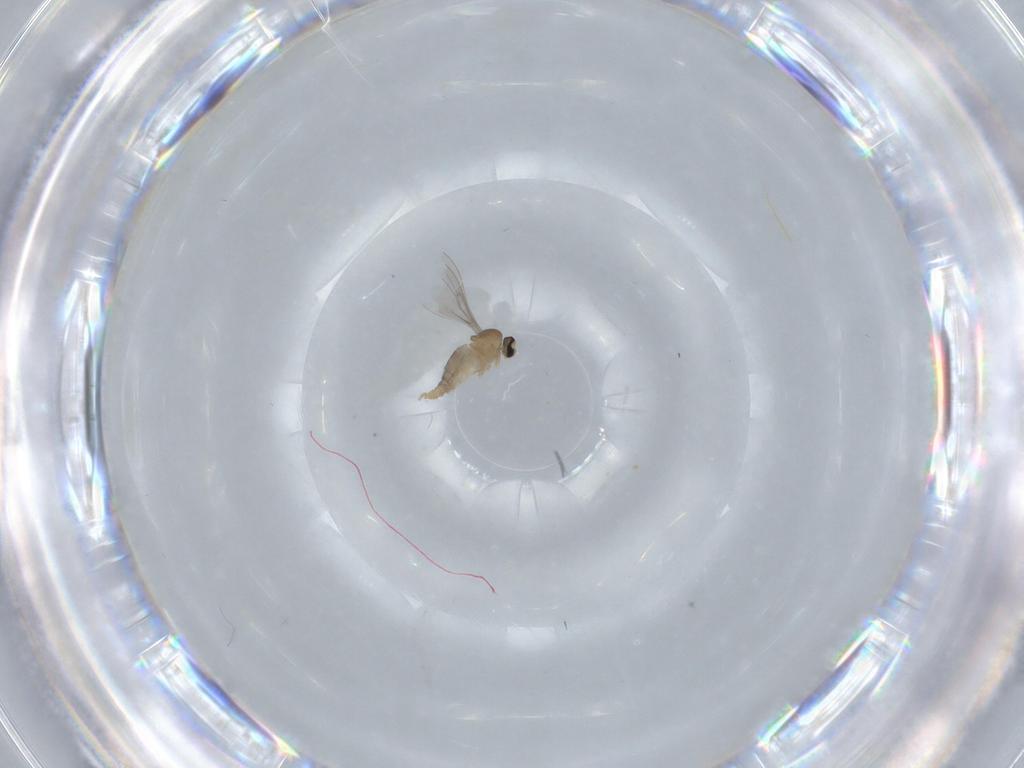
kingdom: Animalia
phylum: Arthropoda
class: Insecta
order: Diptera
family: Cecidomyiidae
